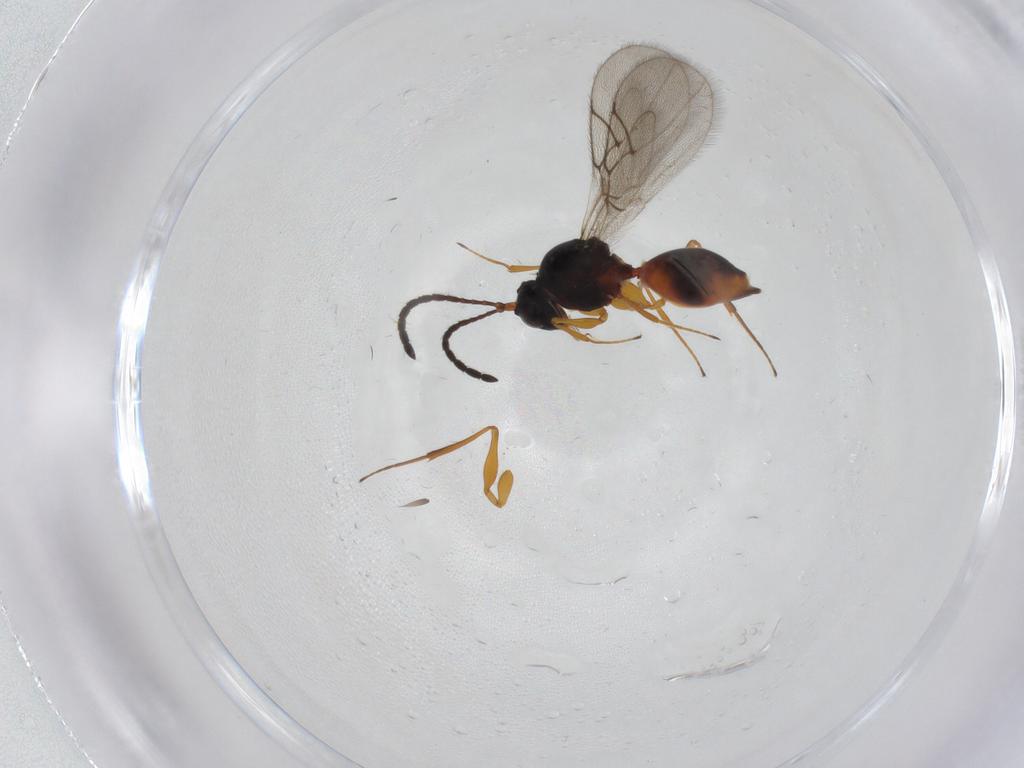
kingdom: Animalia
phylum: Arthropoda
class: Insecta
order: Hymenoptera
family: Figitidae
